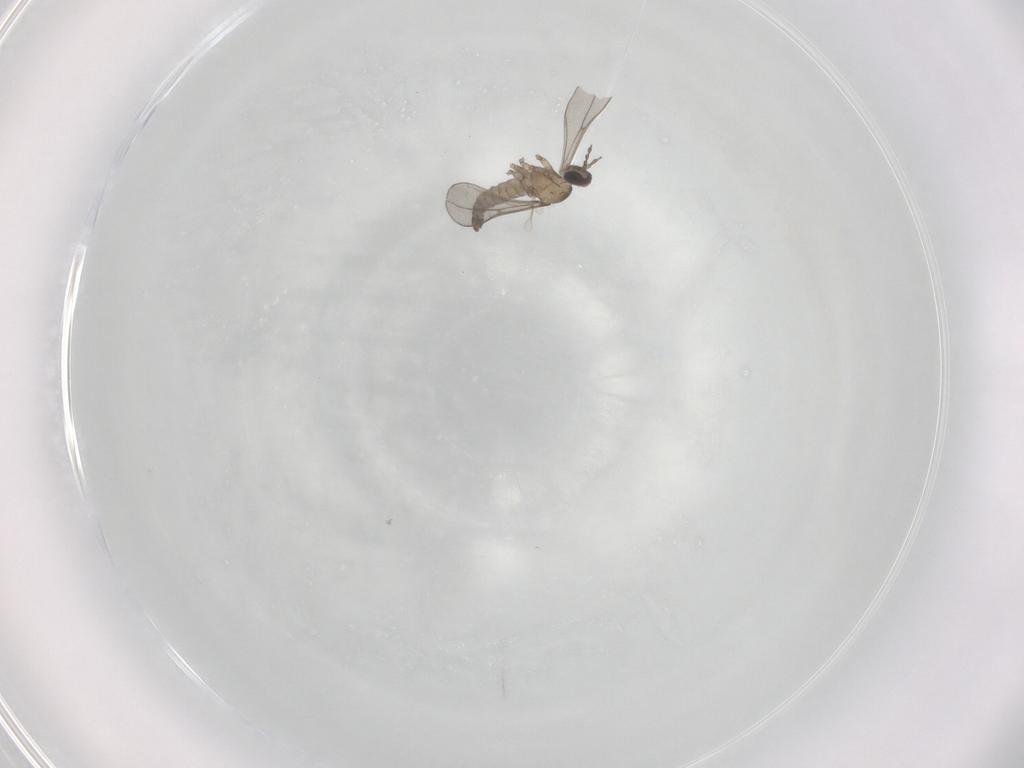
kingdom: Animalia
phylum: Arthropoda
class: Insecta
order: Diptera
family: Cecidomyiidae
